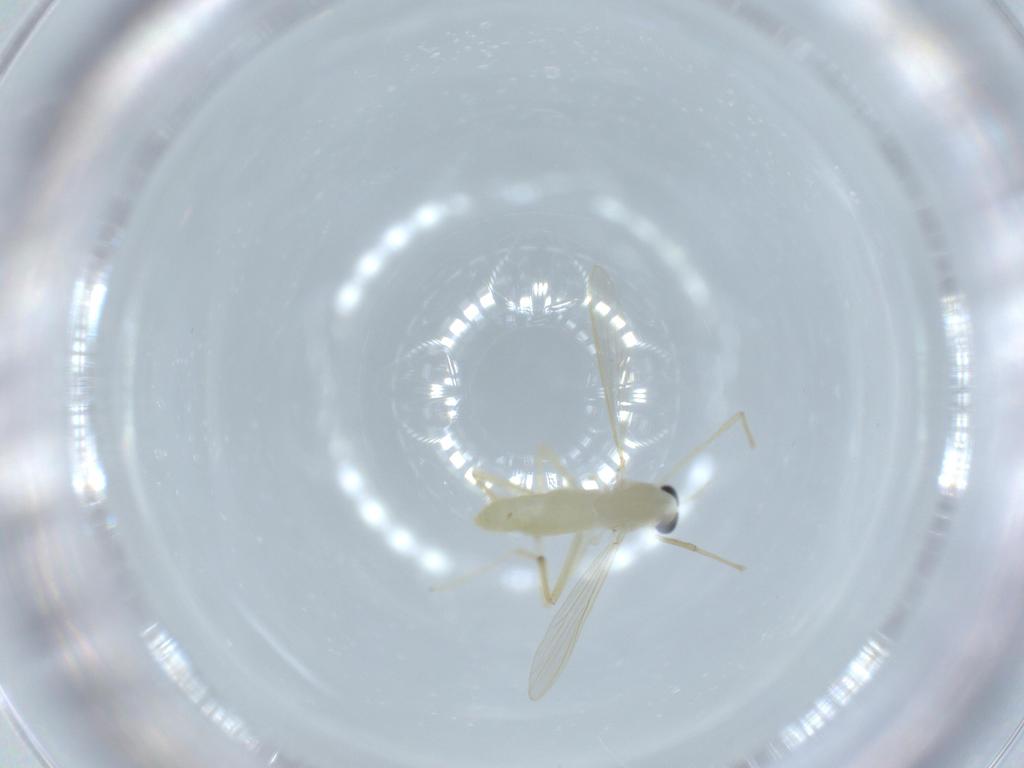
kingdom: Animalia
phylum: Arthropoda
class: Insecta
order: Diptera
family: Chironomidae
